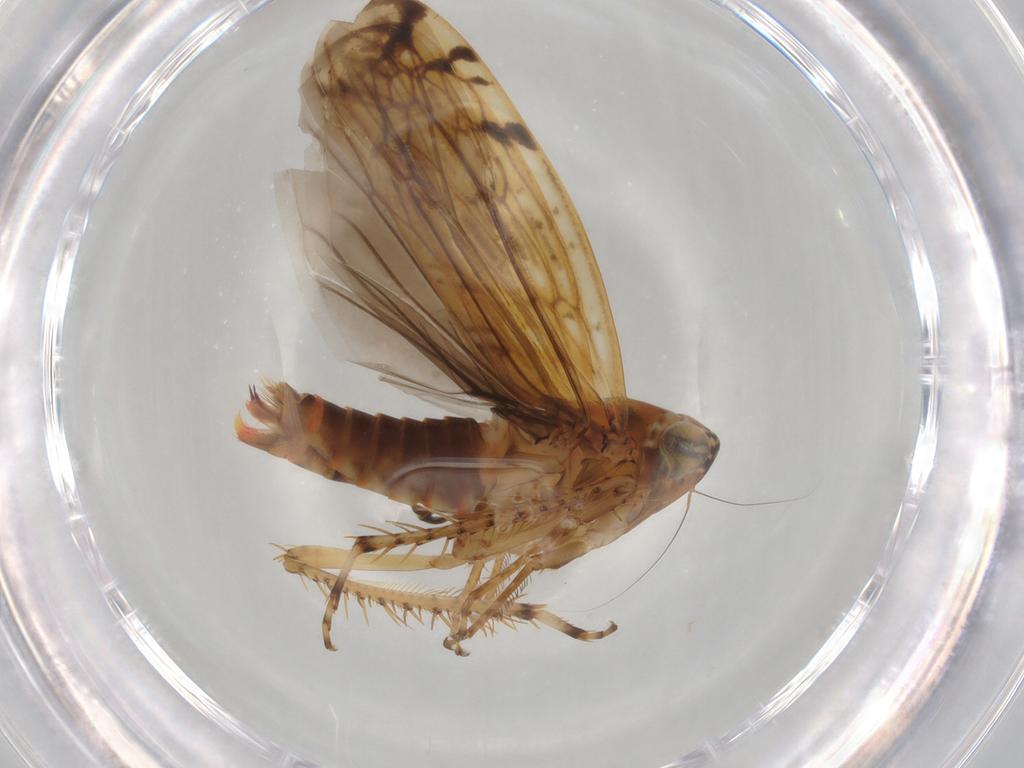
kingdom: Animalia
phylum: Arthropoda
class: Insecta
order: Hemiptera
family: Cicadellidae
